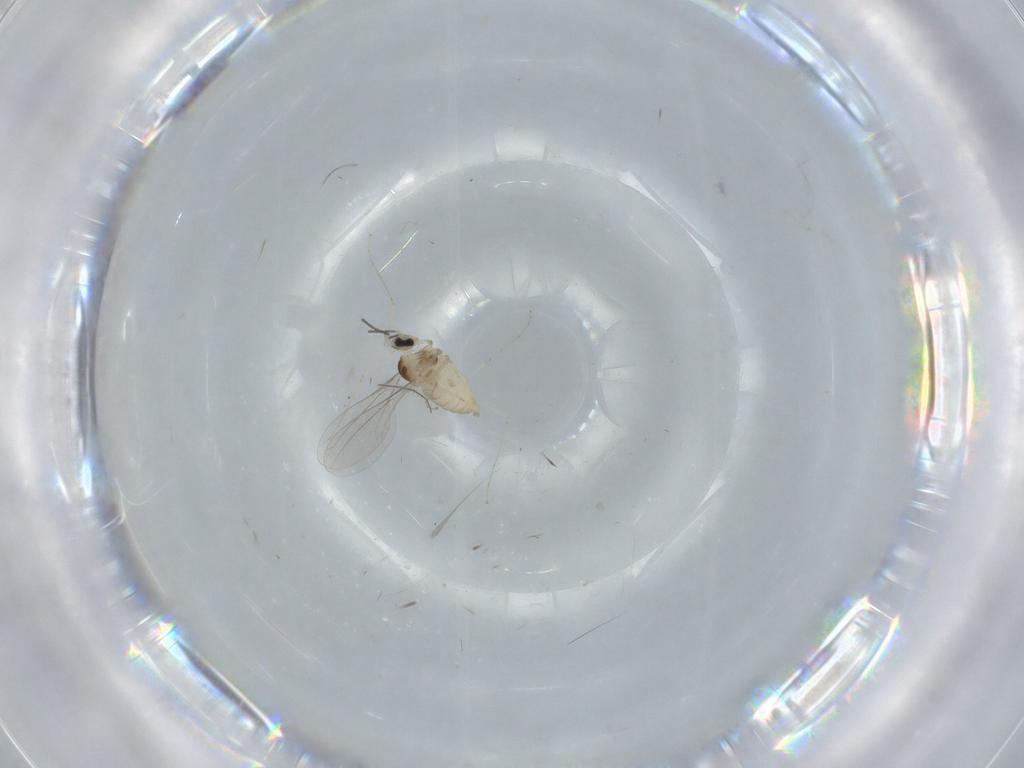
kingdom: Animalia
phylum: Arthropoda
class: Insecta
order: Diptera
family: Cecidomyiidae
